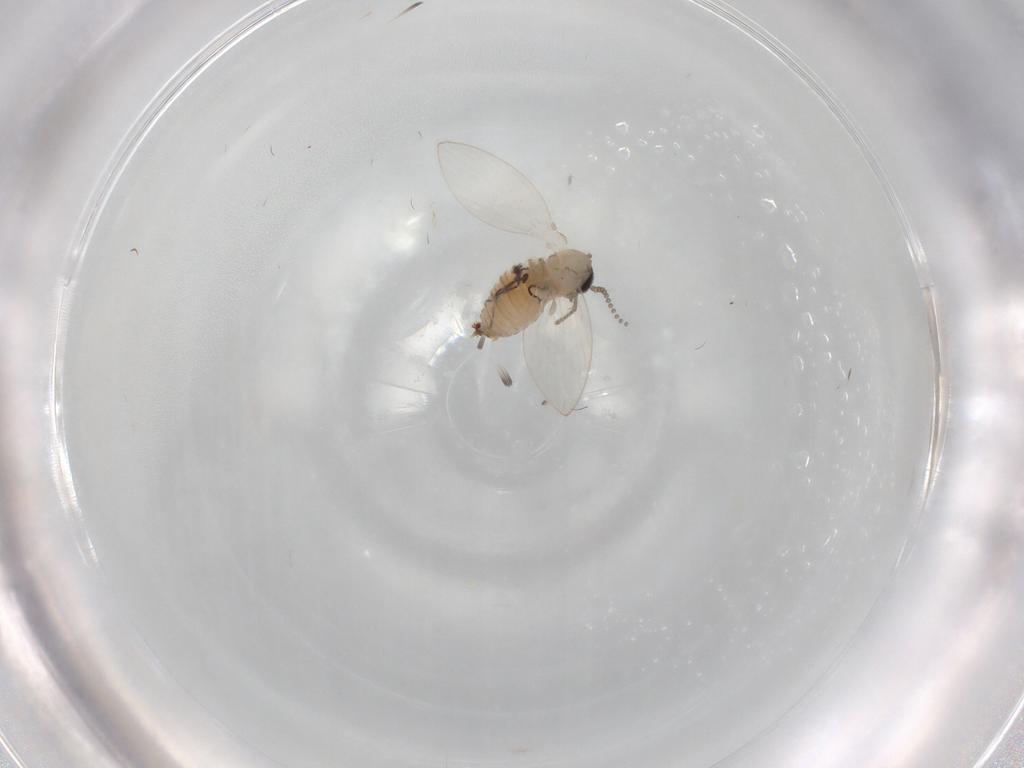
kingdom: Animalia
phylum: Arthropoda
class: Insecta
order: Diptera
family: Psychodidae
